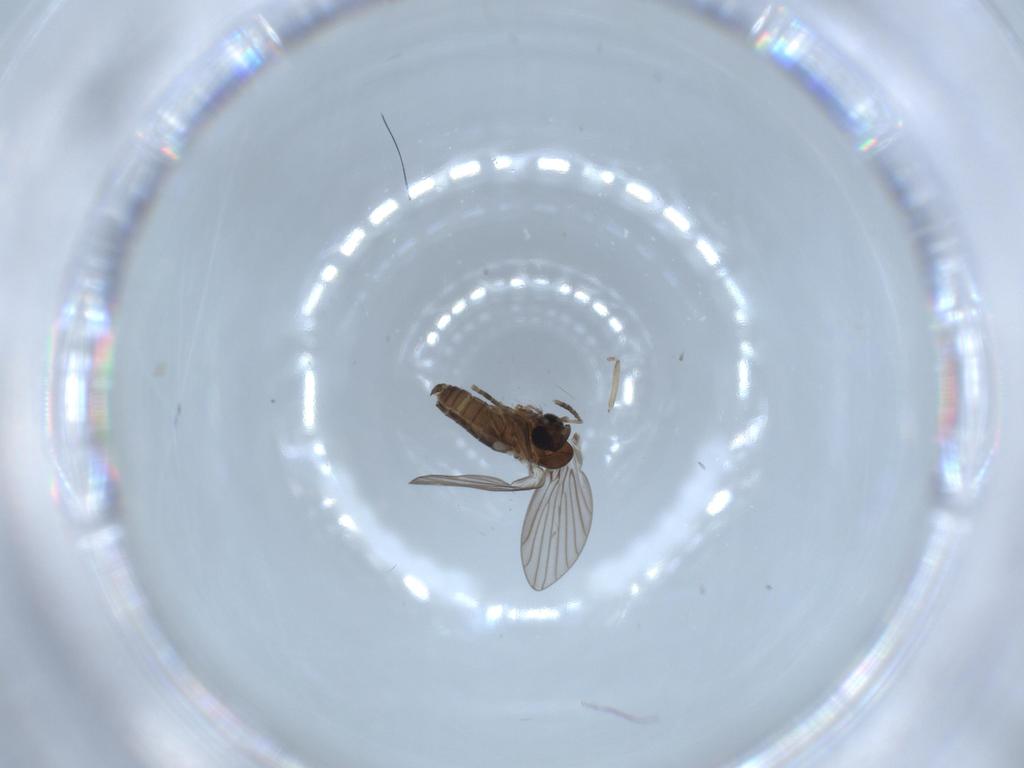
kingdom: Animalia
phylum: Arthropoda
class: Insecta
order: Diptera
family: Psychodidae
